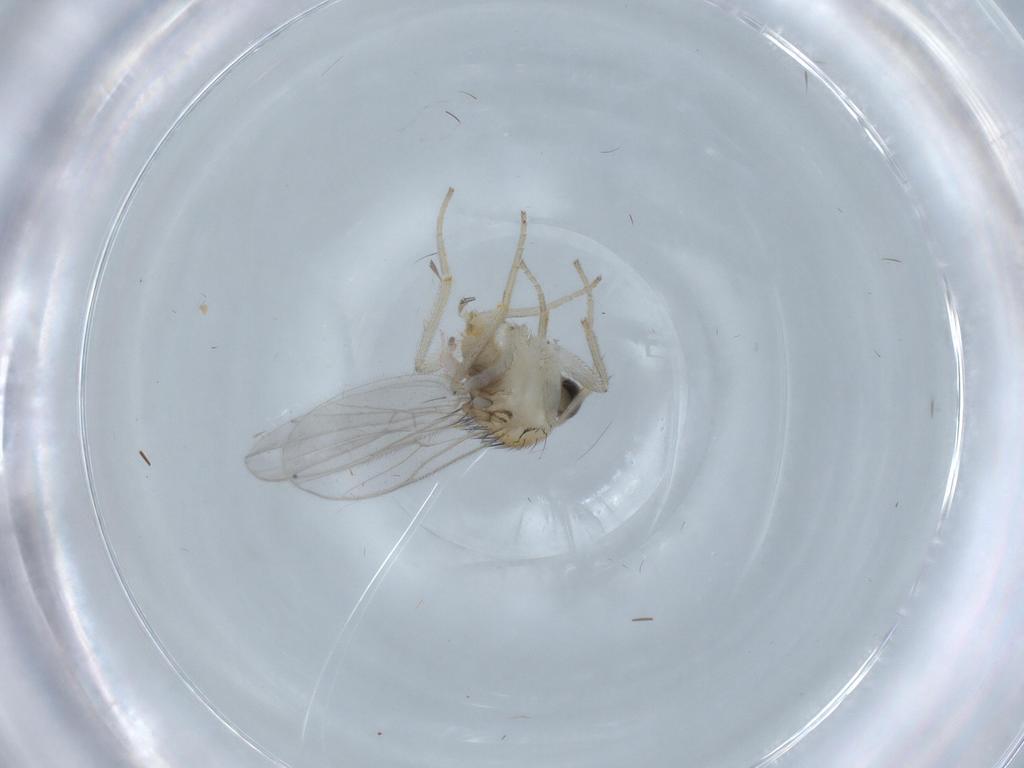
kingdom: Animalia
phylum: Arthropoda
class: Insecta
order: Diptera
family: Hybotidae
